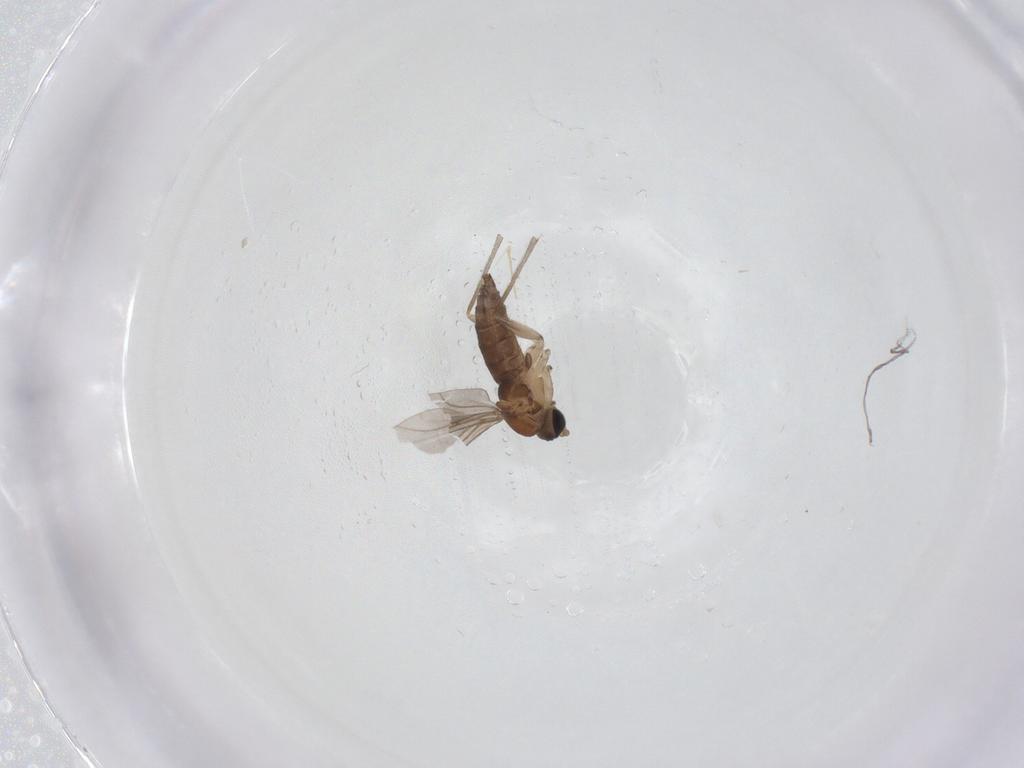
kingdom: Animalia
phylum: Arthropoda
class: Insecta
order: Diptera
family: Sciaridae
